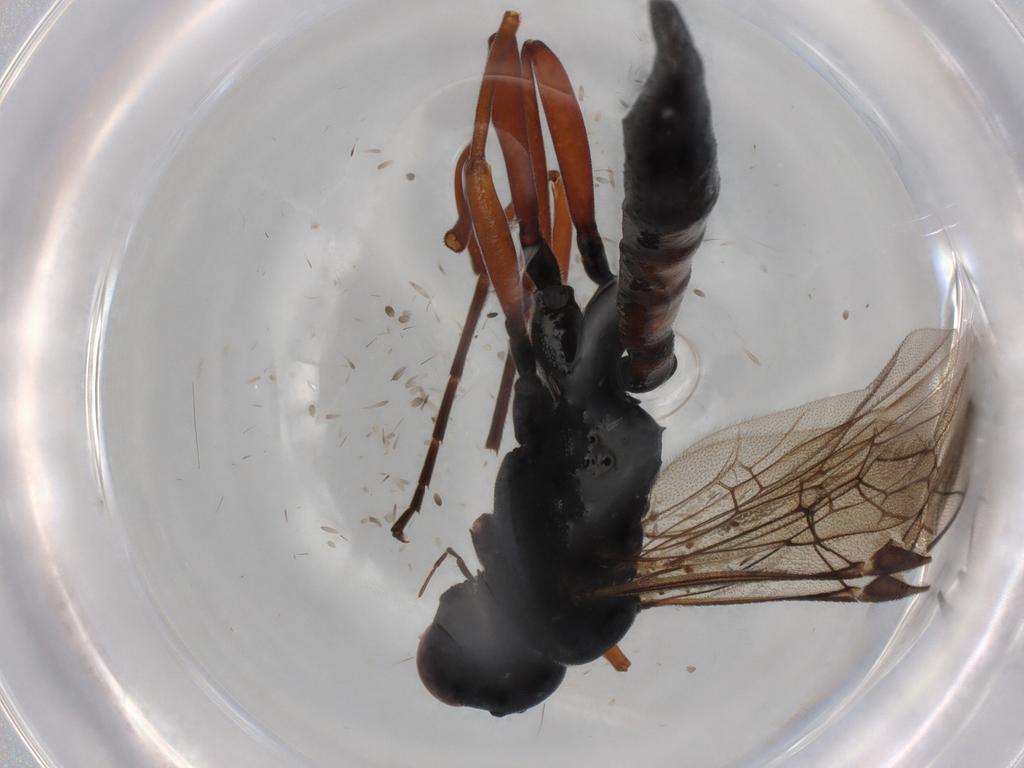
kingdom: Animalia
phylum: Arthropoda
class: Insecta
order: Hymenoptera
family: Ichneumonidae
